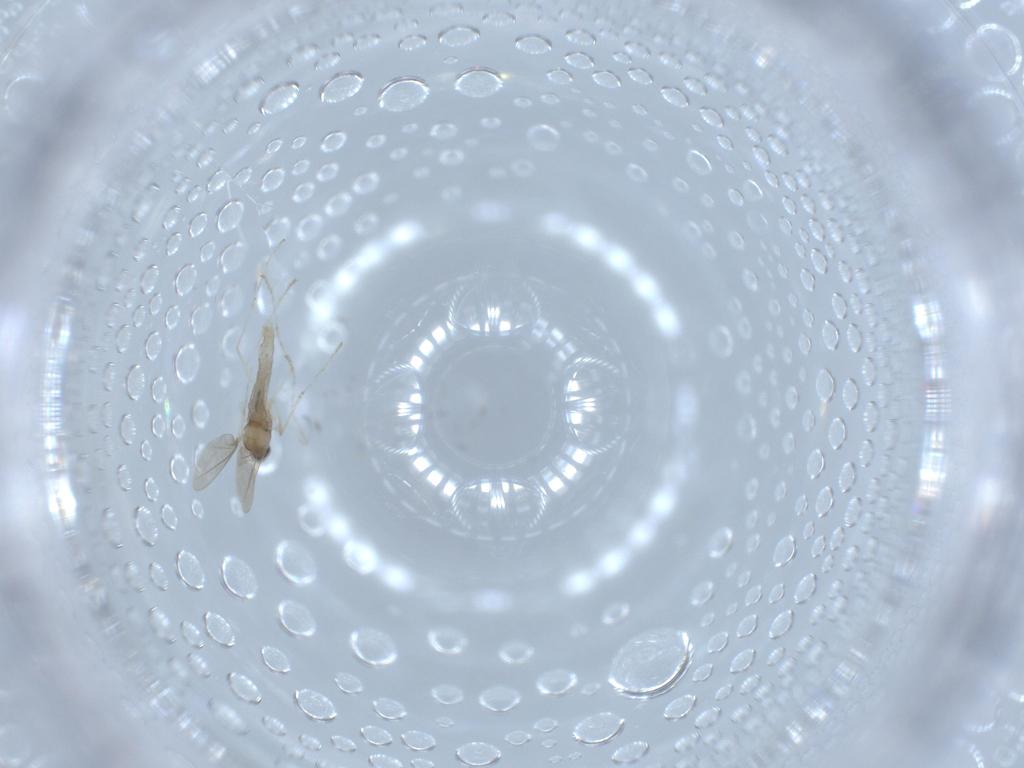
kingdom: Animalia
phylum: Arthropoda
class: Insecta
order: Diptera
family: Cecidomyiidae
